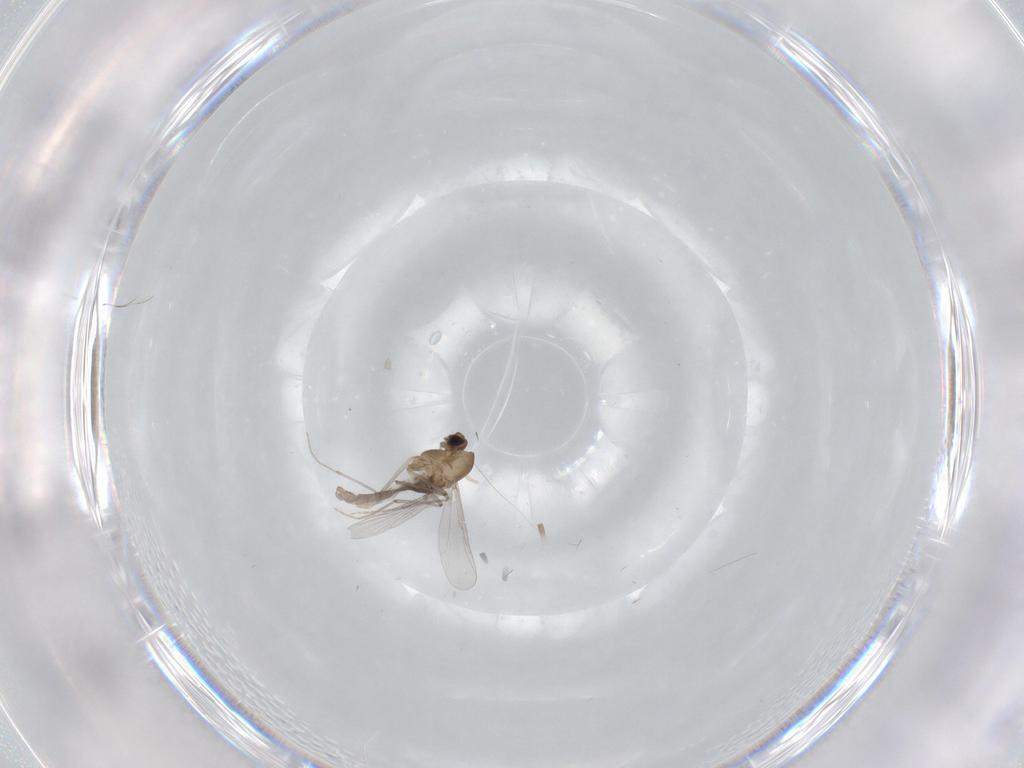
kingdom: Animalia
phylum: Arthropoda
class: Insecta
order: Diptera
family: Chironomidae
